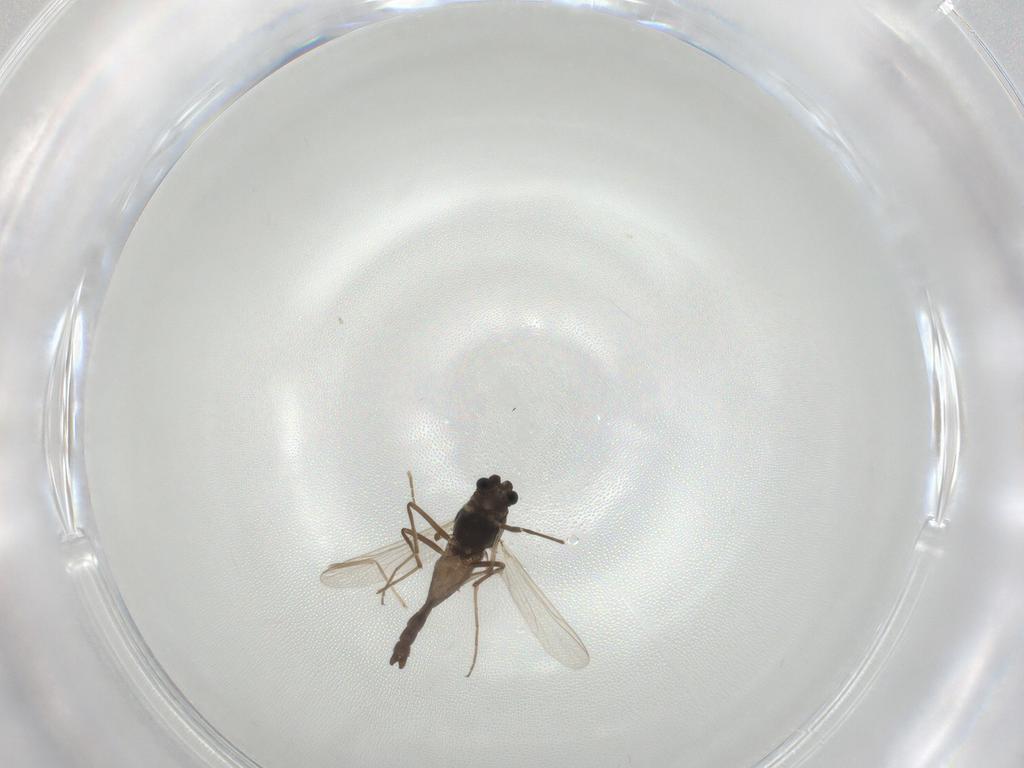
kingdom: Animalia
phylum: Arthropoda
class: Insecta
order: Diptera
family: Chironomidae
